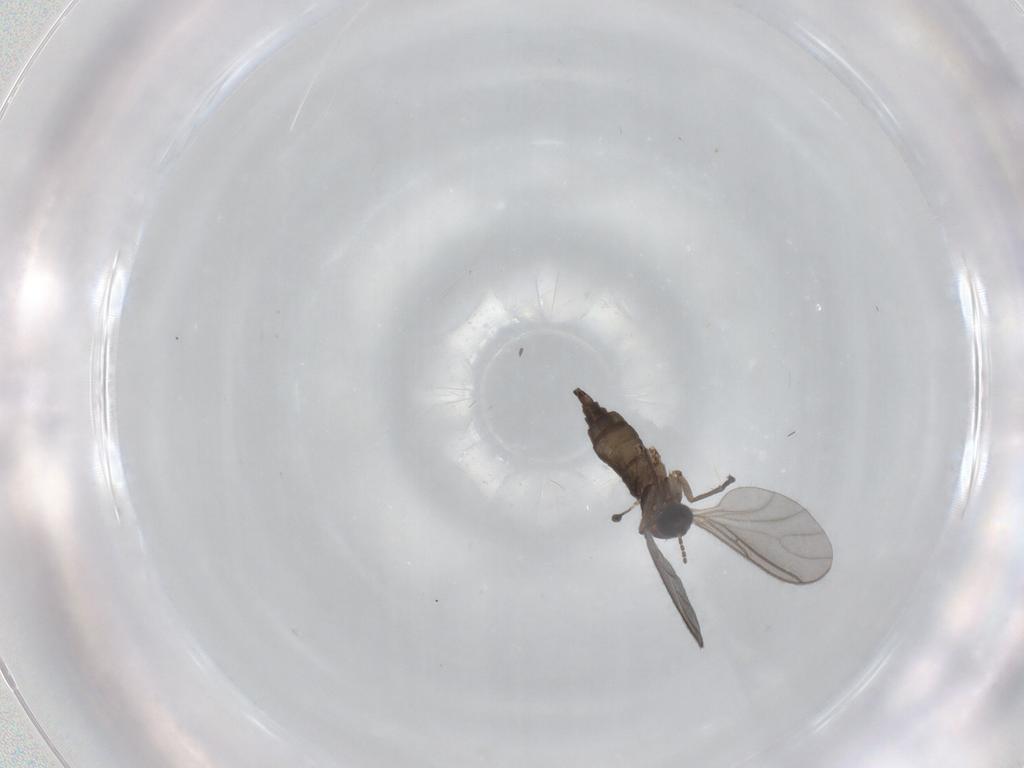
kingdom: Animalia
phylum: Arthropoda
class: Insecta
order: Diptera
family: Sciaridae
